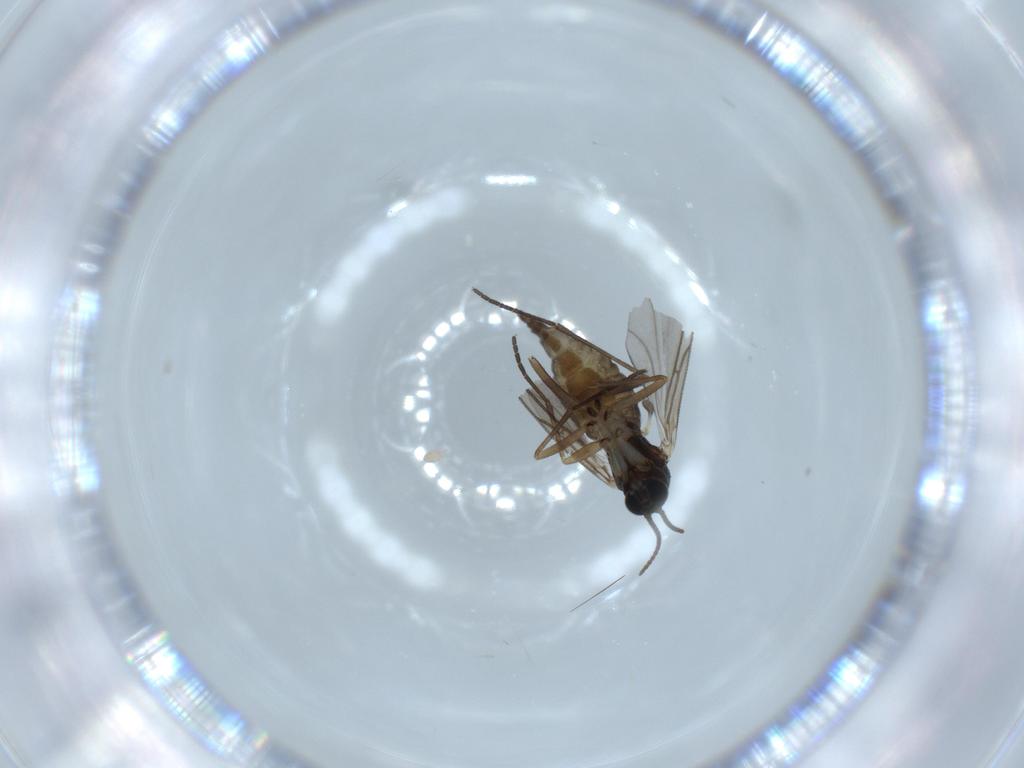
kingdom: Animalia
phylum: Arthropoda
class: Insecta
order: Diptera
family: Sciaridae
